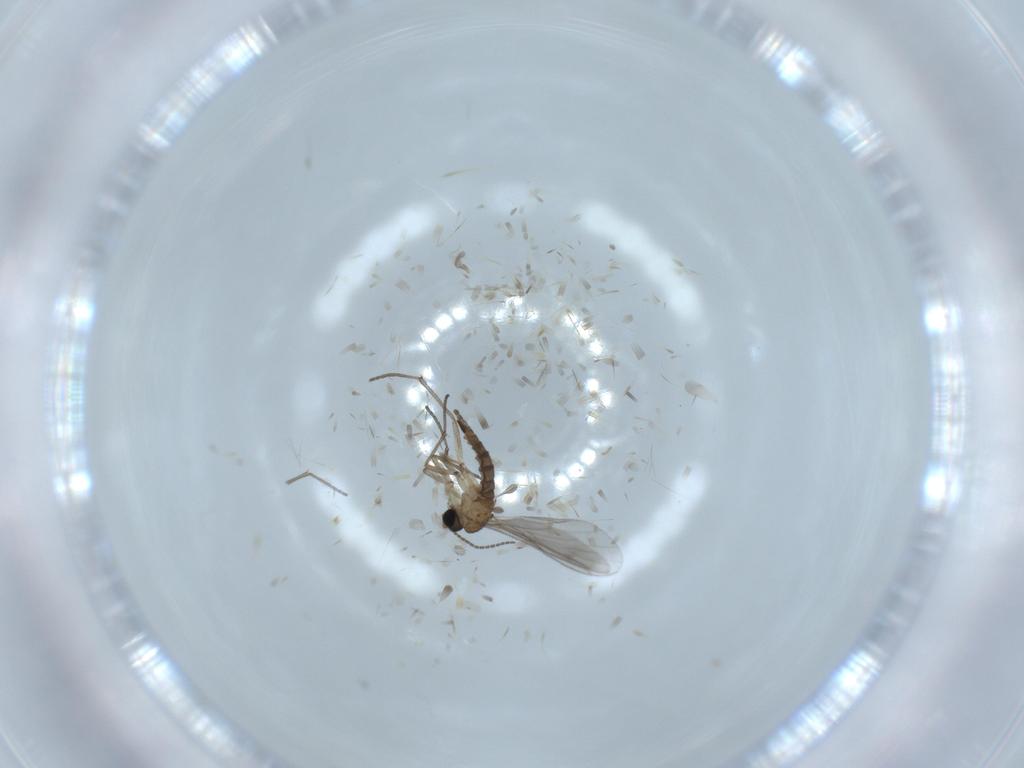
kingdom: Animalia
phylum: Arthropoda
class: Insecta
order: Diptera
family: Sciaridae
